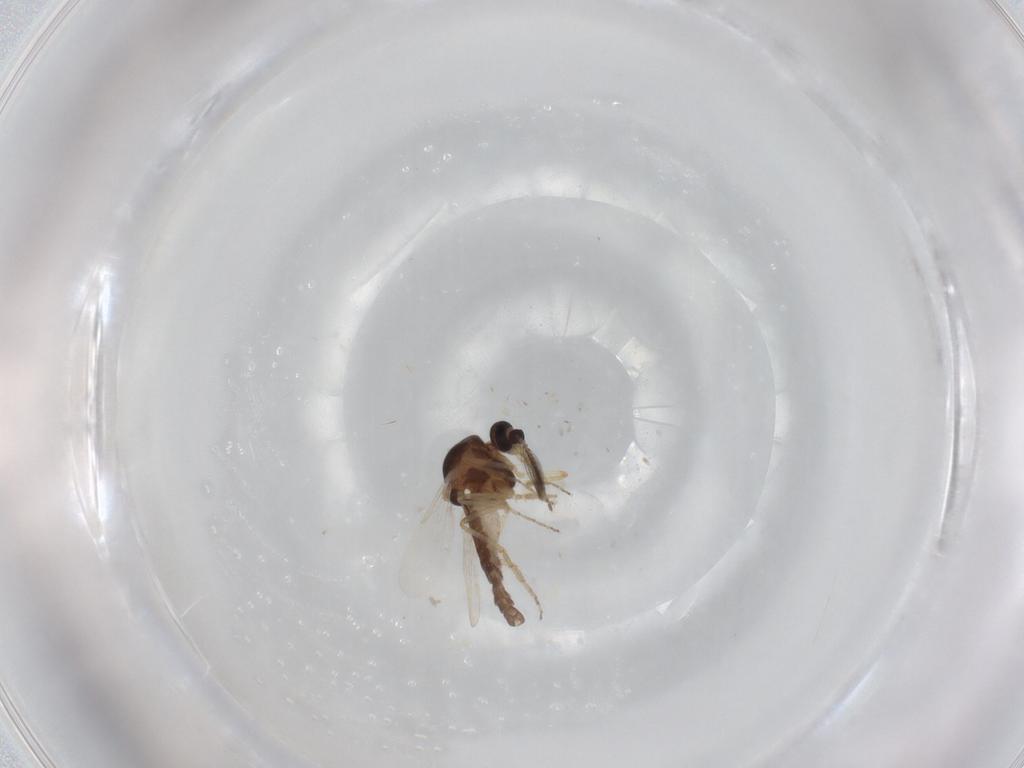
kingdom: Animalia
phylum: Arthropoda
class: Insecta
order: Diptera
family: Ceratopogonidae
